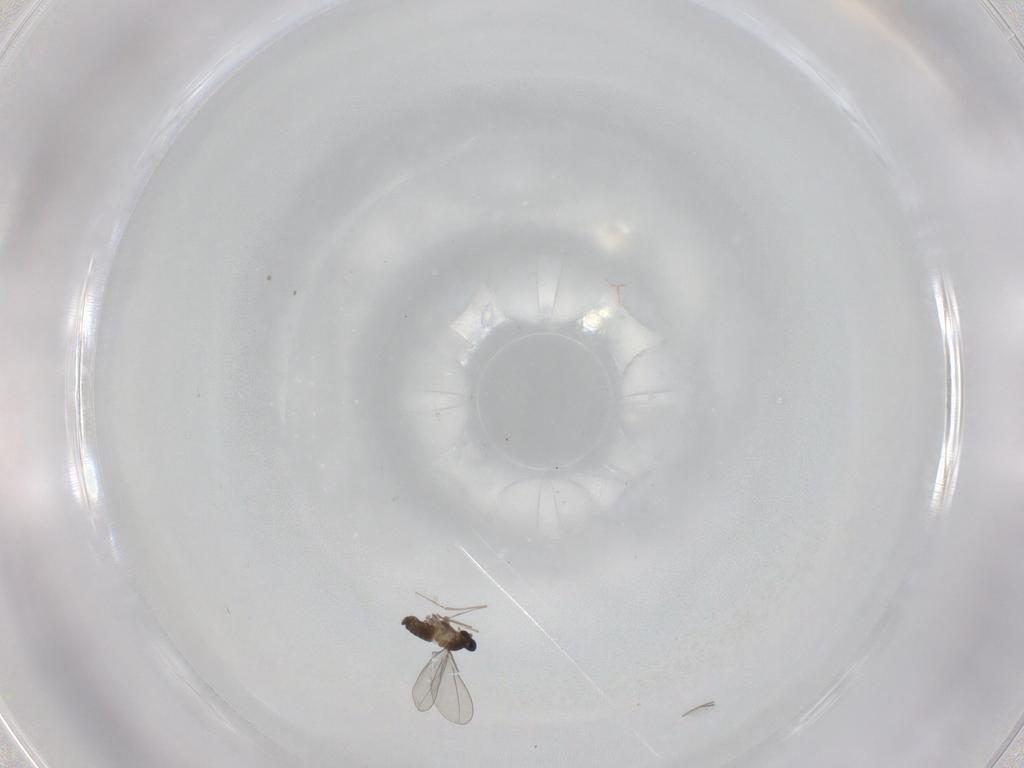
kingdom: Animalia
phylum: Arthropoda
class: Insecta
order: Diptera
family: Cecidomyiidae
